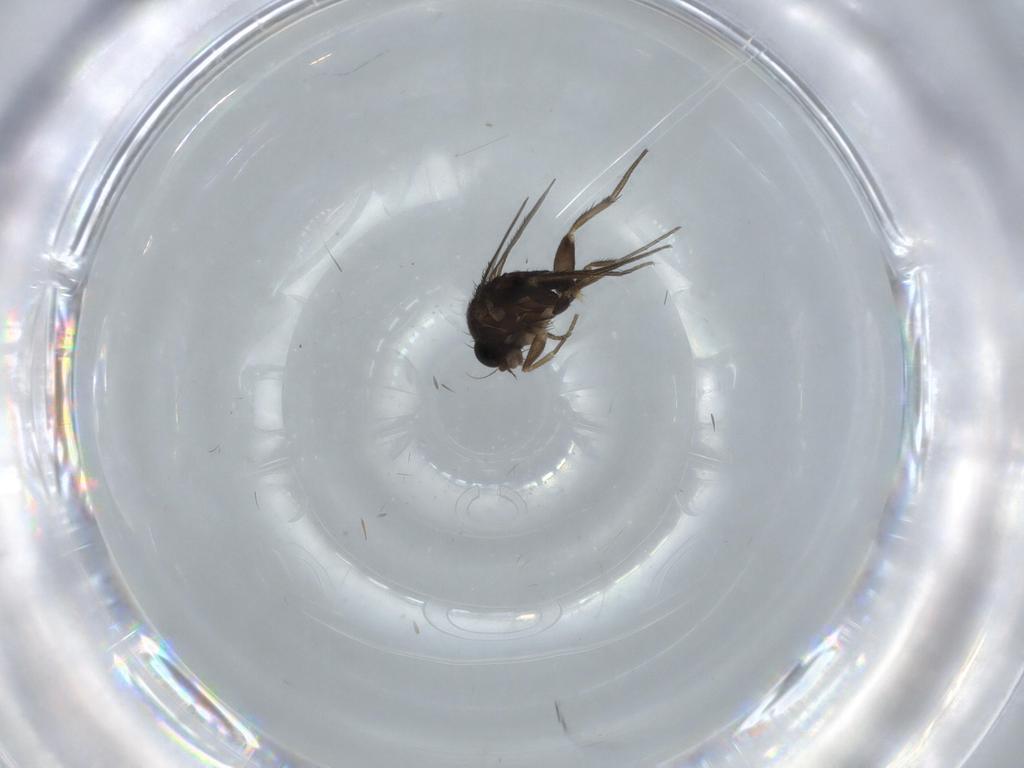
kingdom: Animalia
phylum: Arthropoda
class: Insecta
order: Diptera
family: Phoridae
